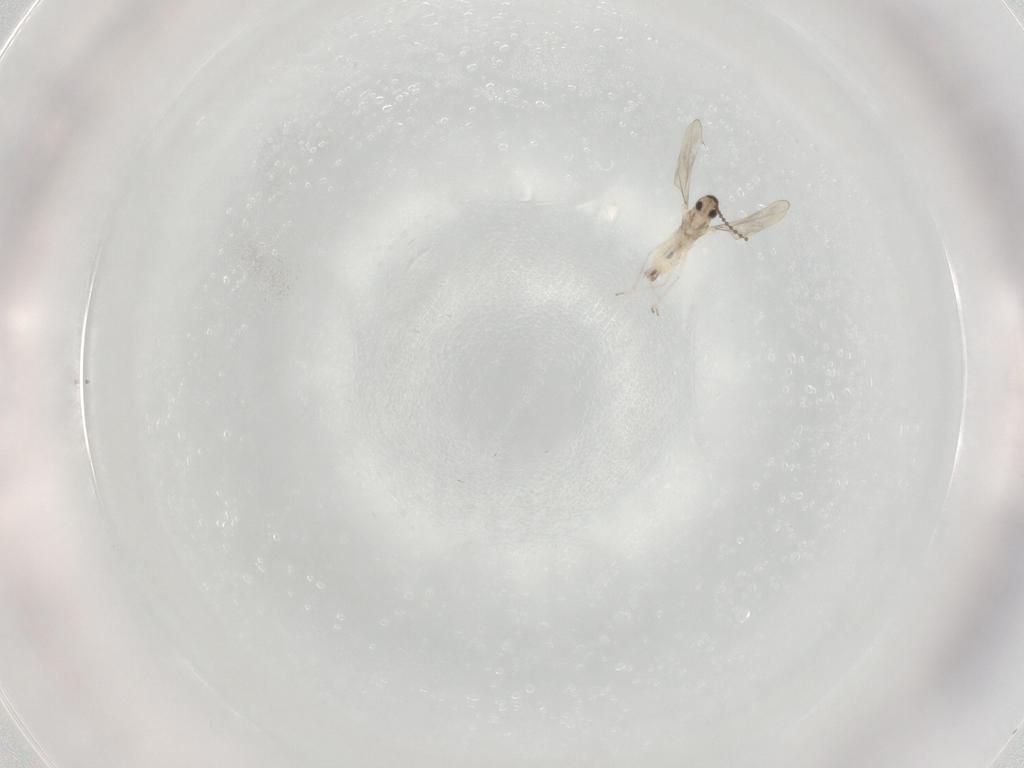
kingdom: Animalia
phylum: Arthropoda
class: Insecta
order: Diptera
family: Cecidomyiidae
